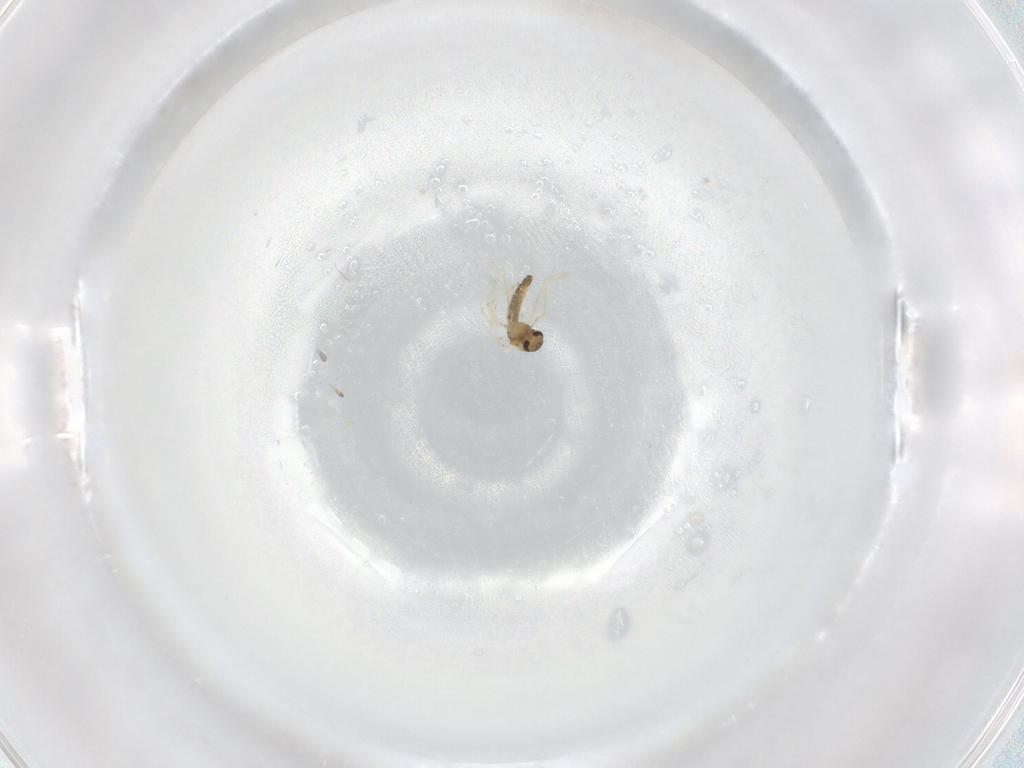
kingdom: Animalia
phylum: Arthropoda
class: Insecta
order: Diptera
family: Chironomidae
